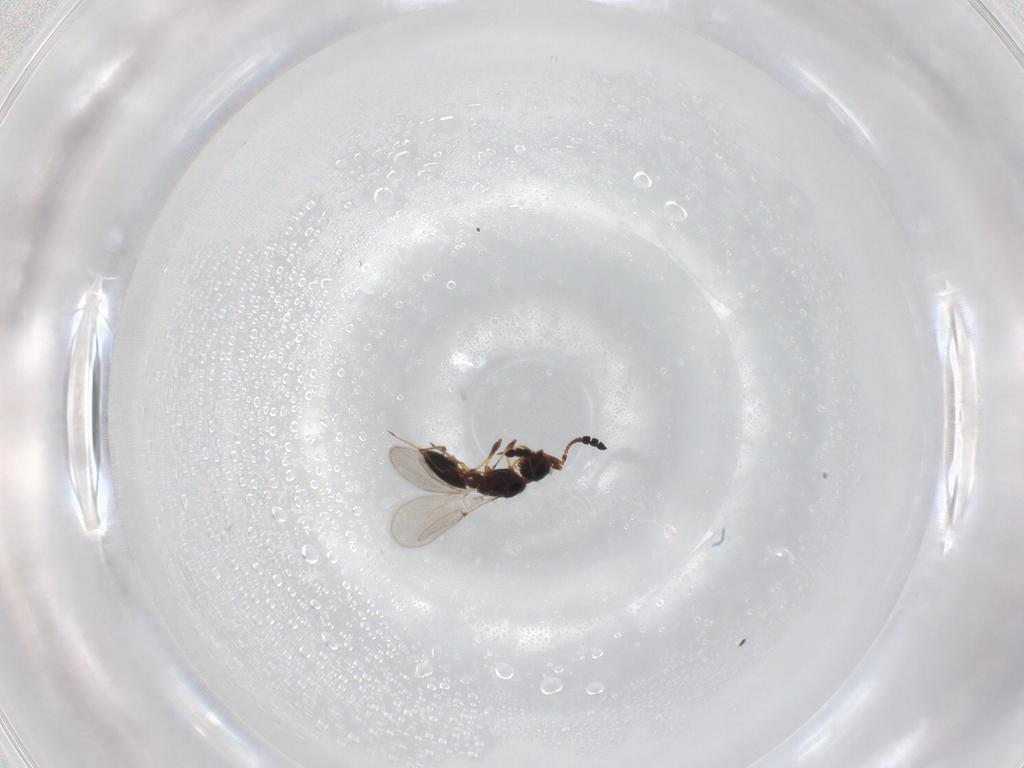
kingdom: Animalia
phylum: Arthropoda
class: Insecta
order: Hymenoptera
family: Diapriidae
